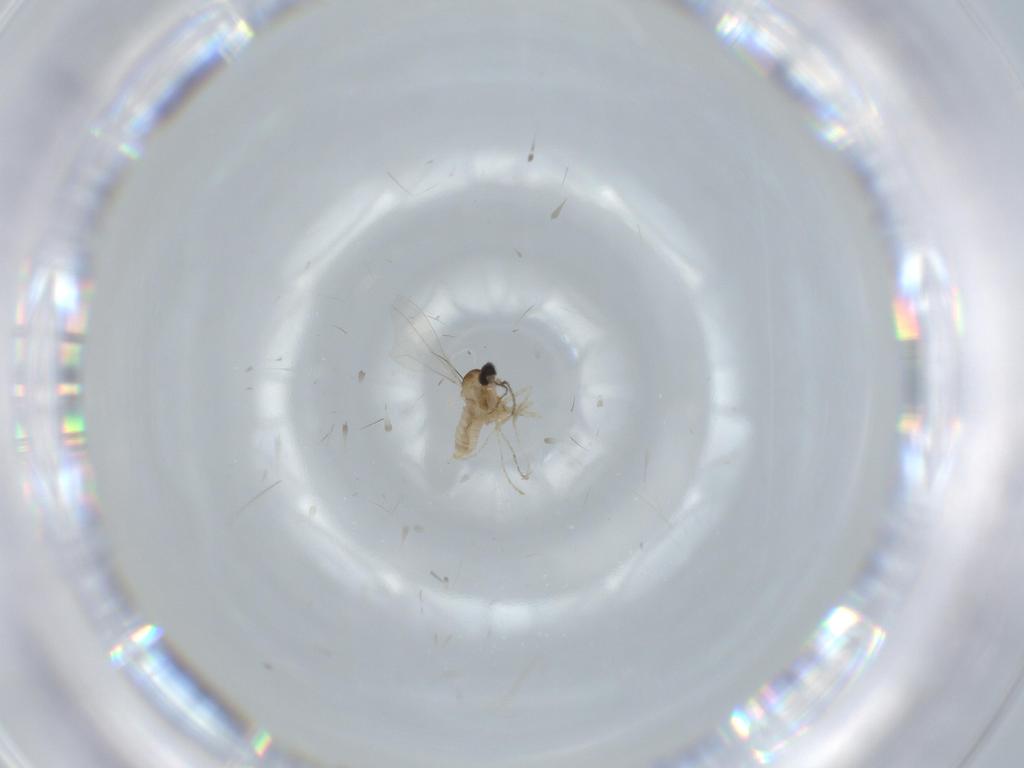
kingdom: Animalia
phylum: Arthropoda
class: Insecta
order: Diptera
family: Cecidomyiidae
